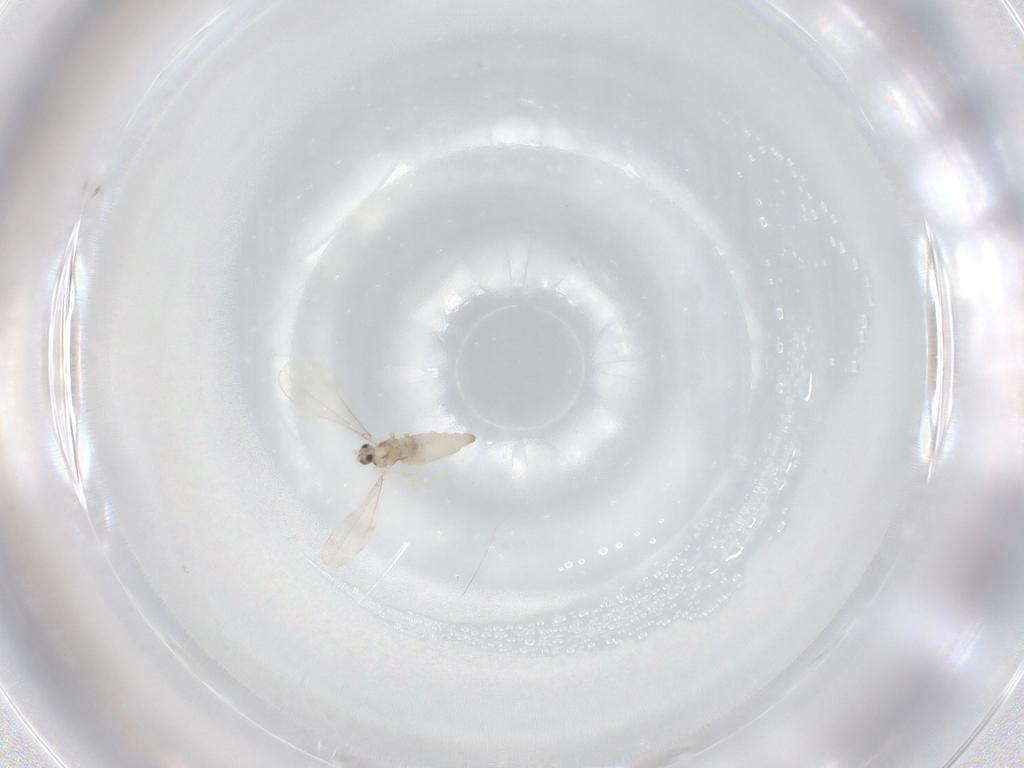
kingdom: Animalia
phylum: Arthropoda
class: Insecta
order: Diptera
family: Cecidomyiidae
